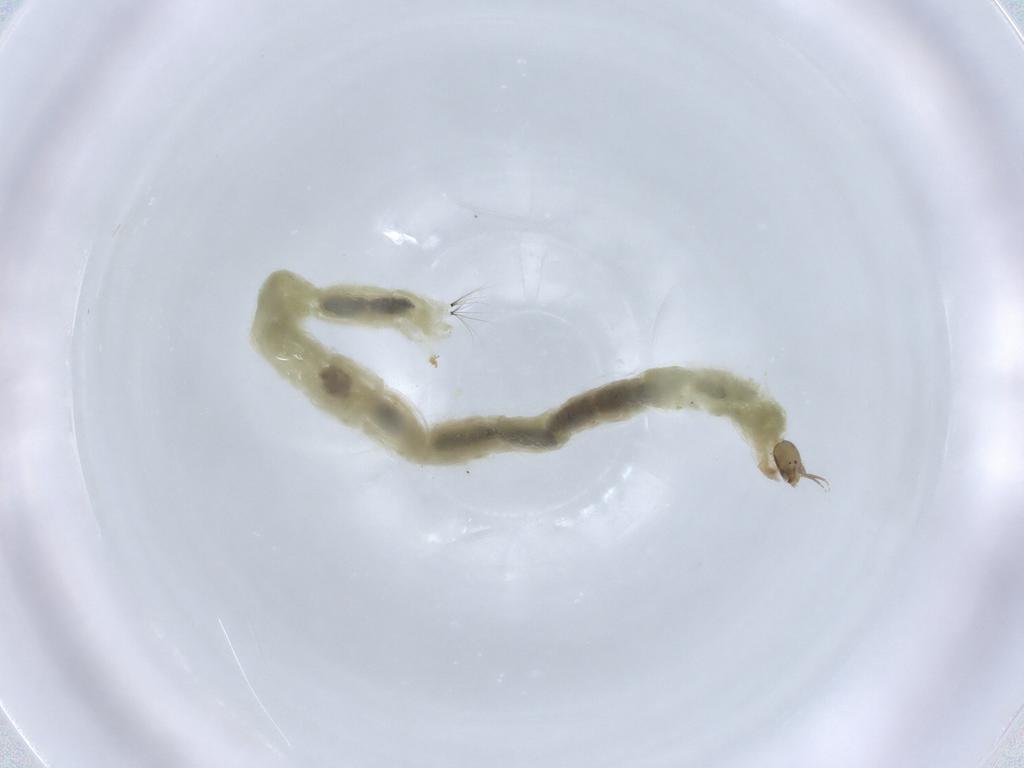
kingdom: Animalia
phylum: Arthropoda
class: Insecta
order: Diptera
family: Chironomidae
